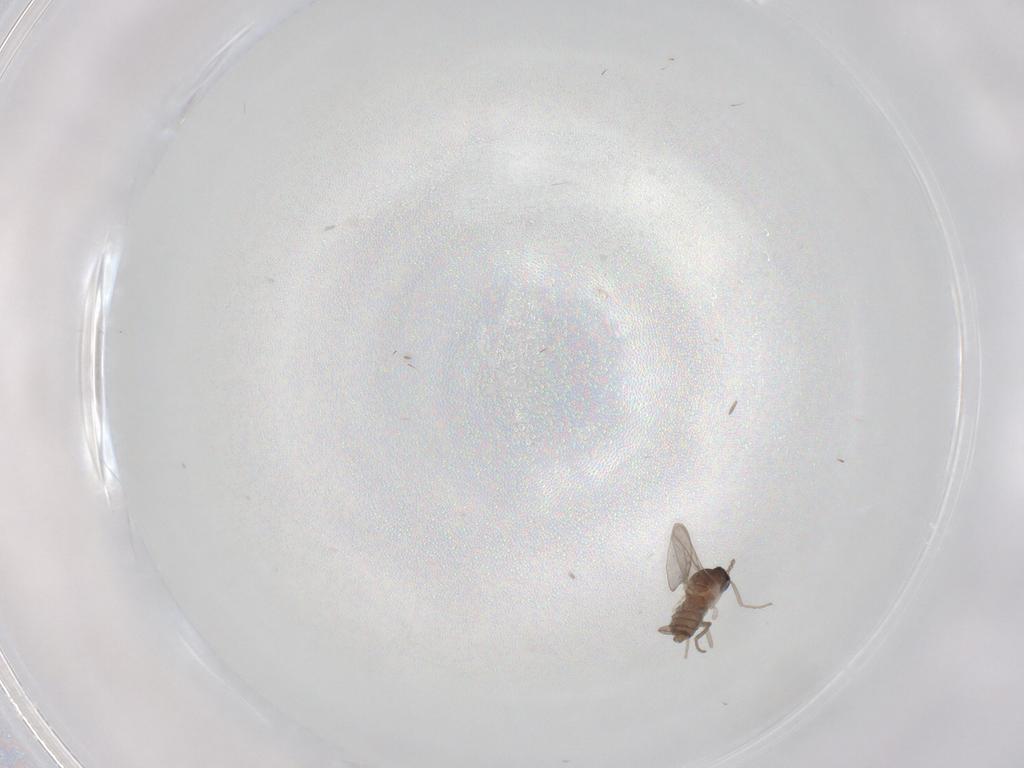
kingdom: Animalia
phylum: Arthropoda
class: Insecta
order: Diptera
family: Cecidomyiidae
